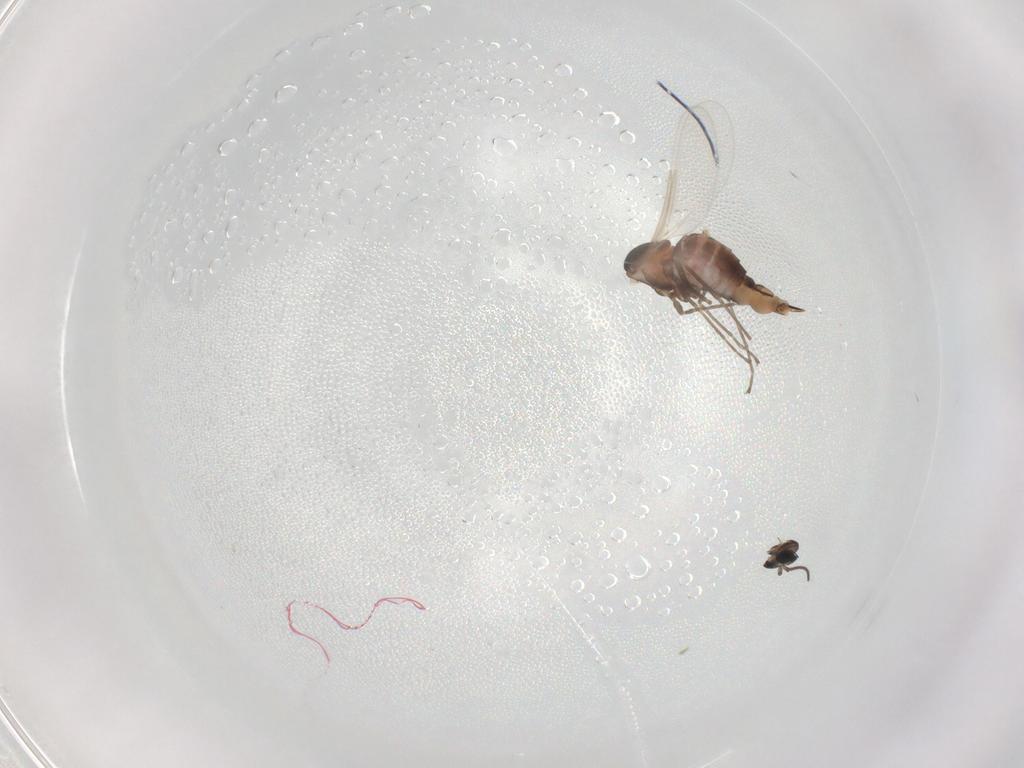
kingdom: Animalia
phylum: Arthropoda
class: Insecta
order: Diptera
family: Cecidomyiidae
